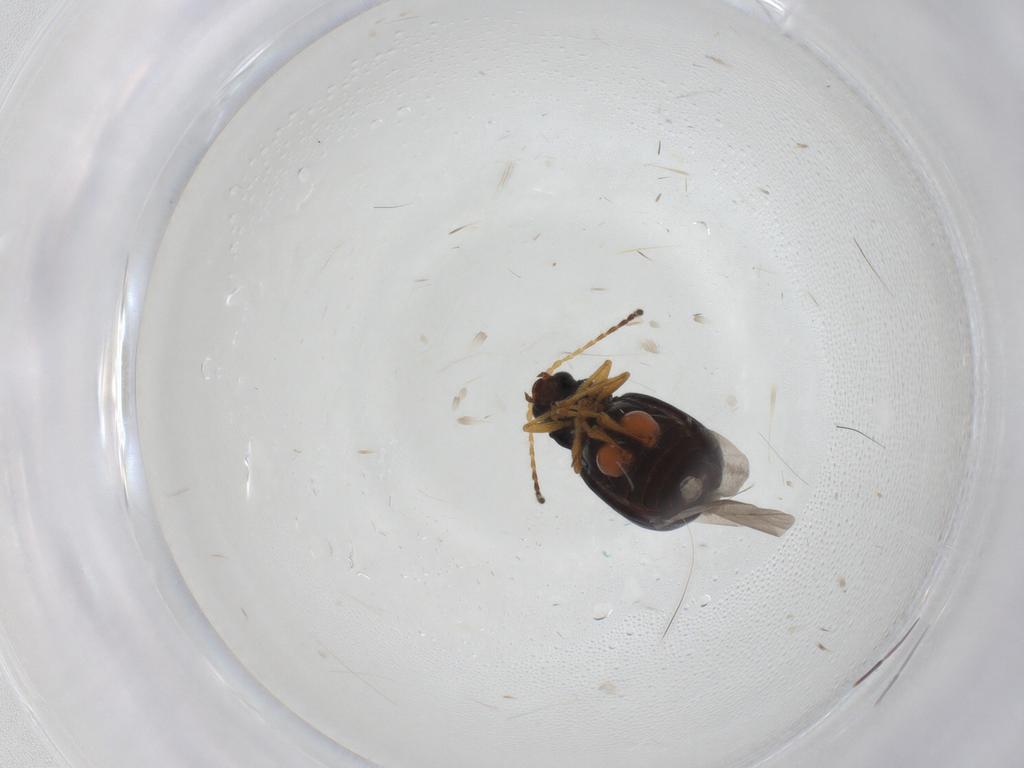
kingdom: Animalia
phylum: Arthropoda
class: Insecta
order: Coleoptera
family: Chrysomelidae
